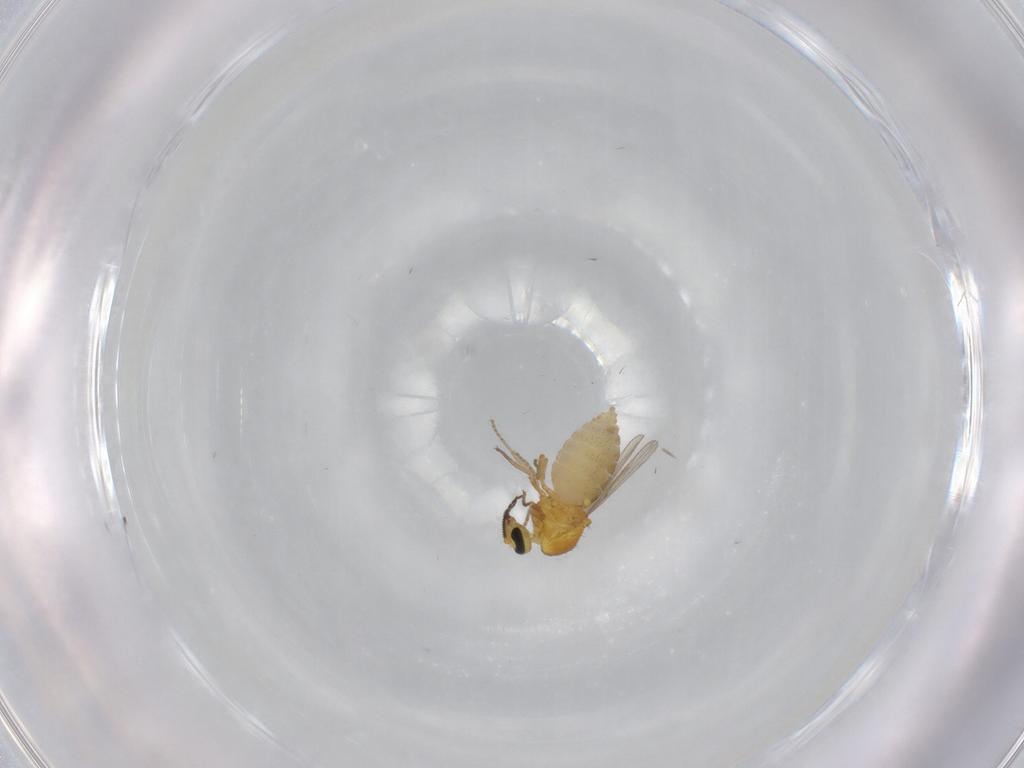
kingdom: Animalia
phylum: Arthropoda
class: Insecta
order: Diptera
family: Ceratopogonidae
